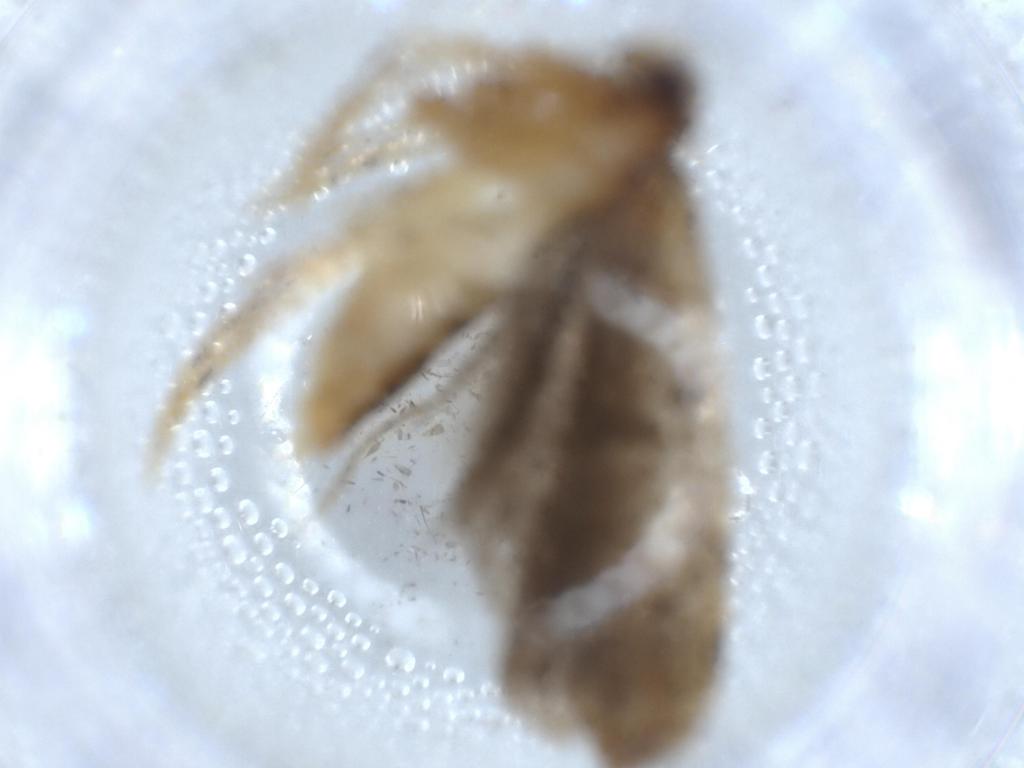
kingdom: Animalia
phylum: Arthropoda
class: Insecta
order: Lepidoptera
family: Autostichidae
